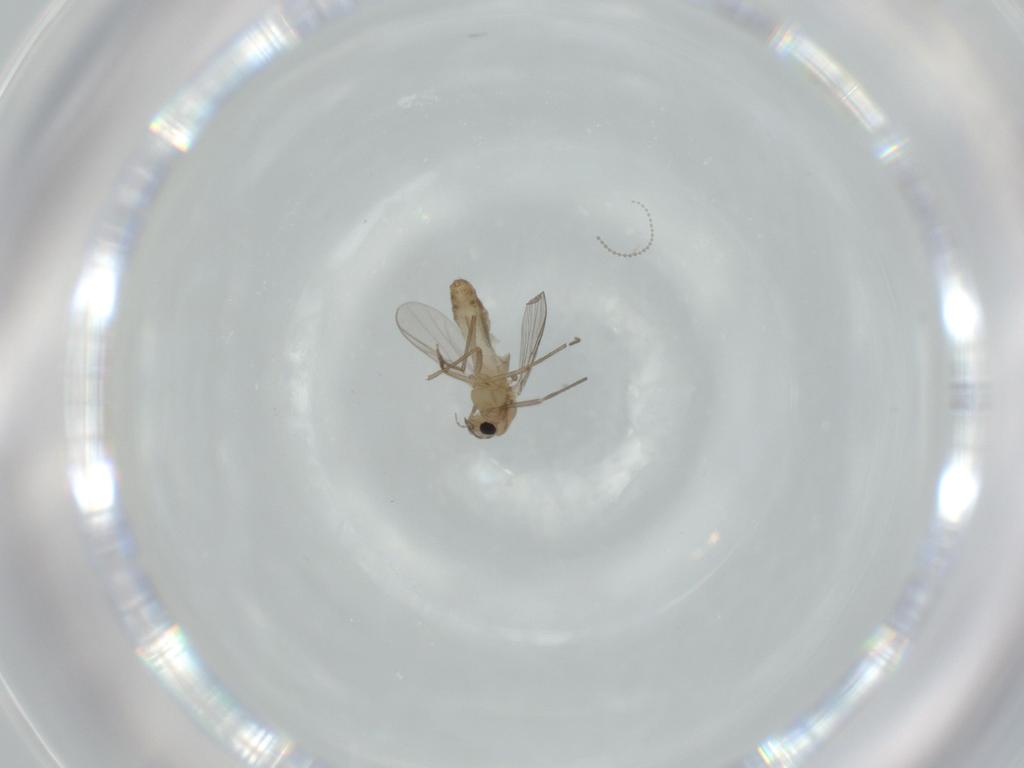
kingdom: Animalia
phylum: Arthropoda
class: Insecta
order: Diptera
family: Chironomidae
